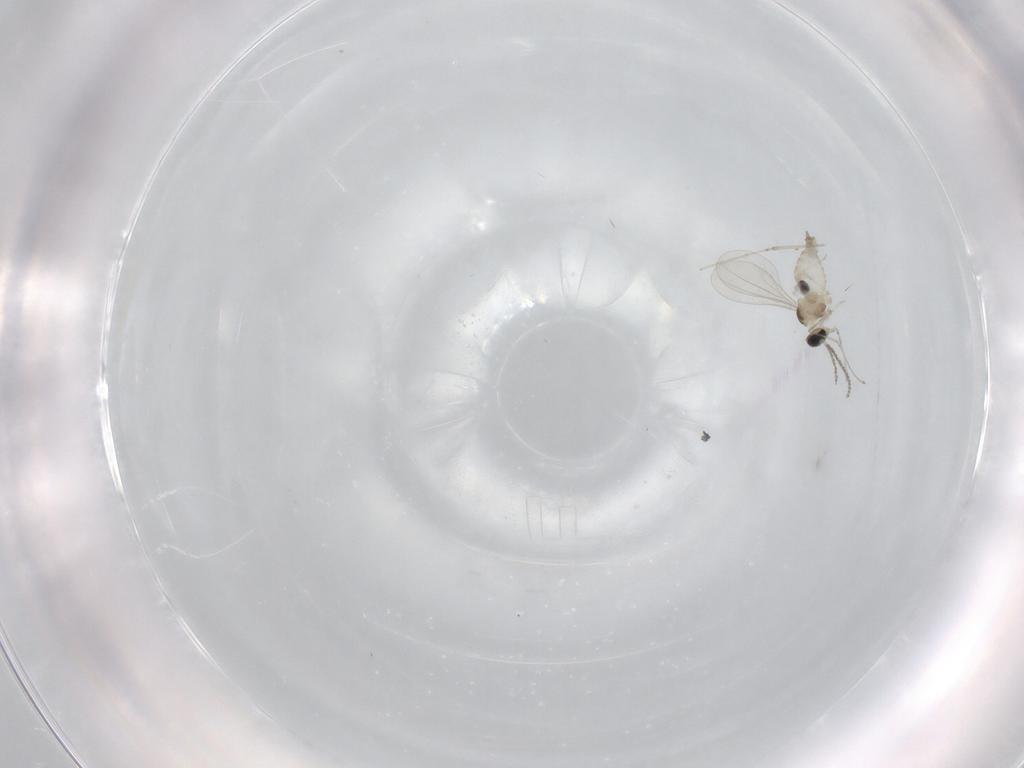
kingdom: Animalia
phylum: Arthropoda
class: Insecta
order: Diptera
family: Cecidomyiidae
